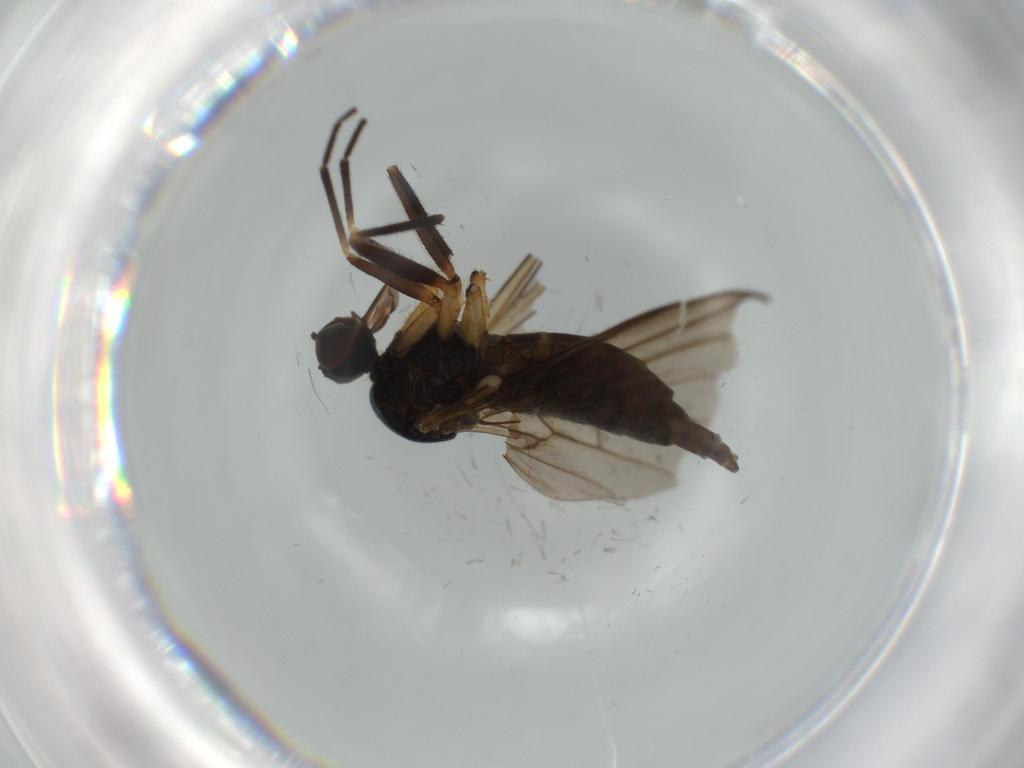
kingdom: Animalia
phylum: Arthropoda
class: Insecta
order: Diptera
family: Empididae
